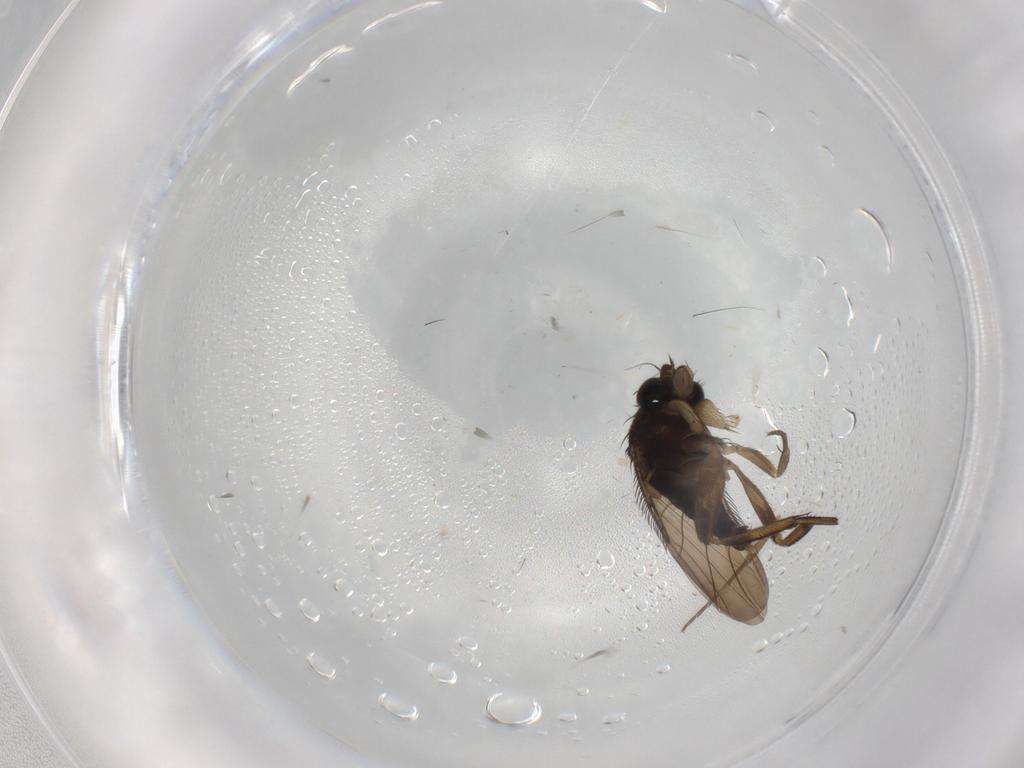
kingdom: Animalia
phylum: Arthropoda
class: Insecta
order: Diptera
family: Phoridae
